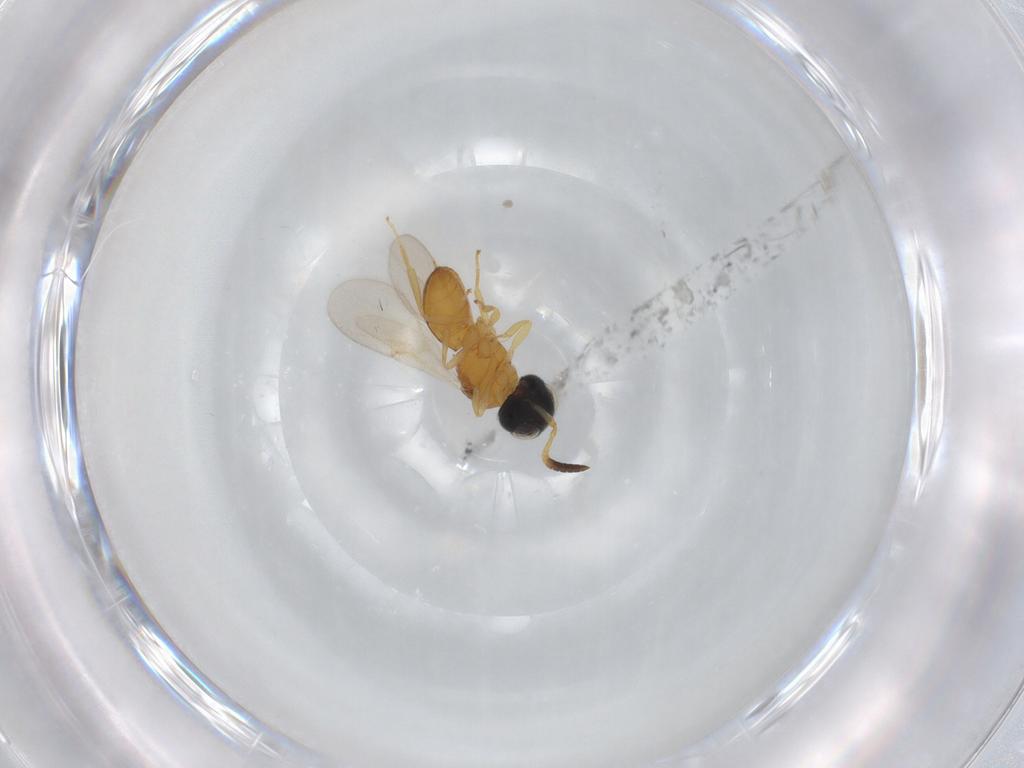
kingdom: Animalia
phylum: Arthropoda
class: Insecta
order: Hymenoptera
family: Scelionidae
